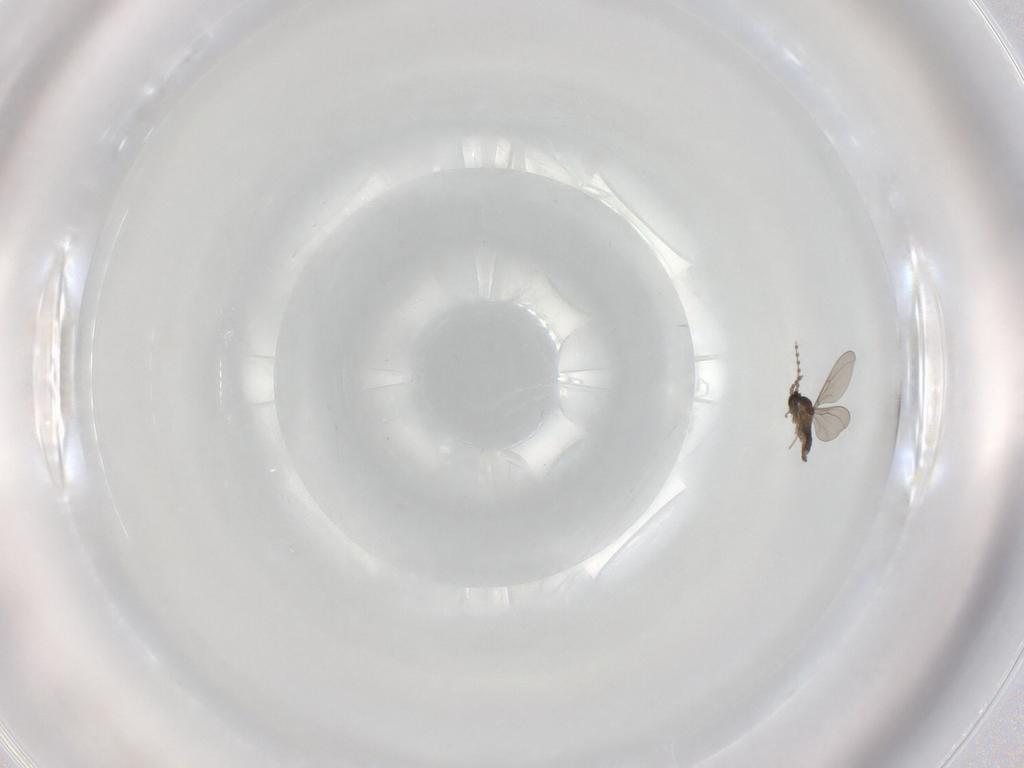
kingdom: Animalia
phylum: Arthropoda
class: Insecta
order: Diptera
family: Cecidomyiidae
